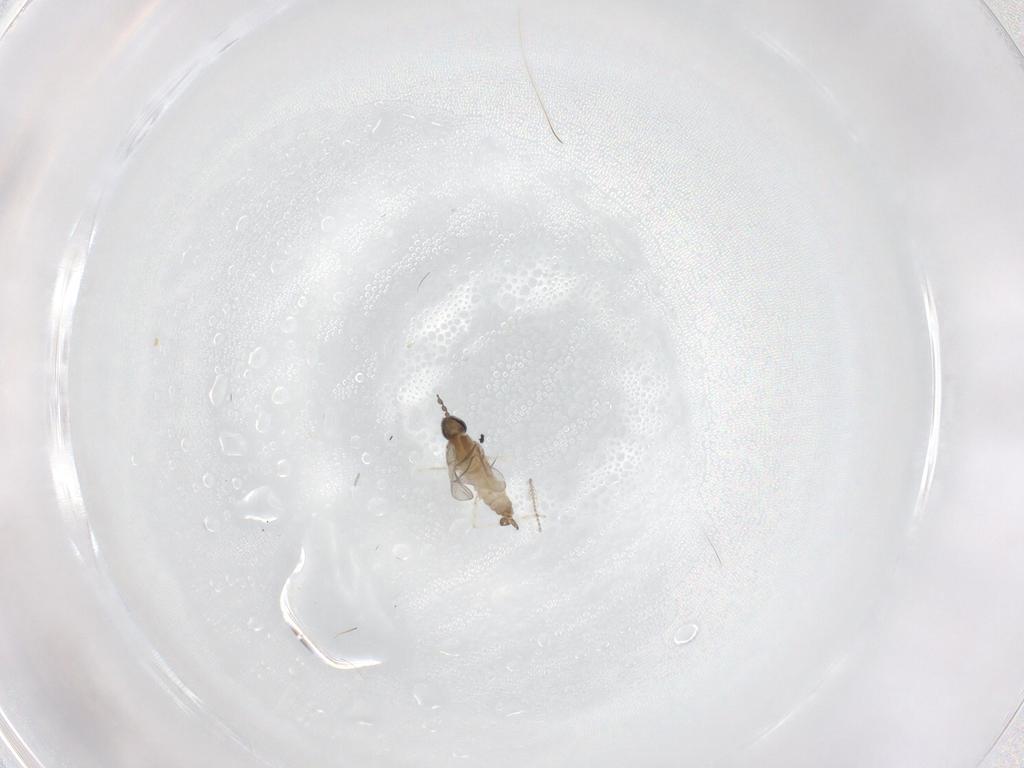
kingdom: Animalia
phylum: Arthropoda
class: Insecta
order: Diptera
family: Cecidomyiidae
